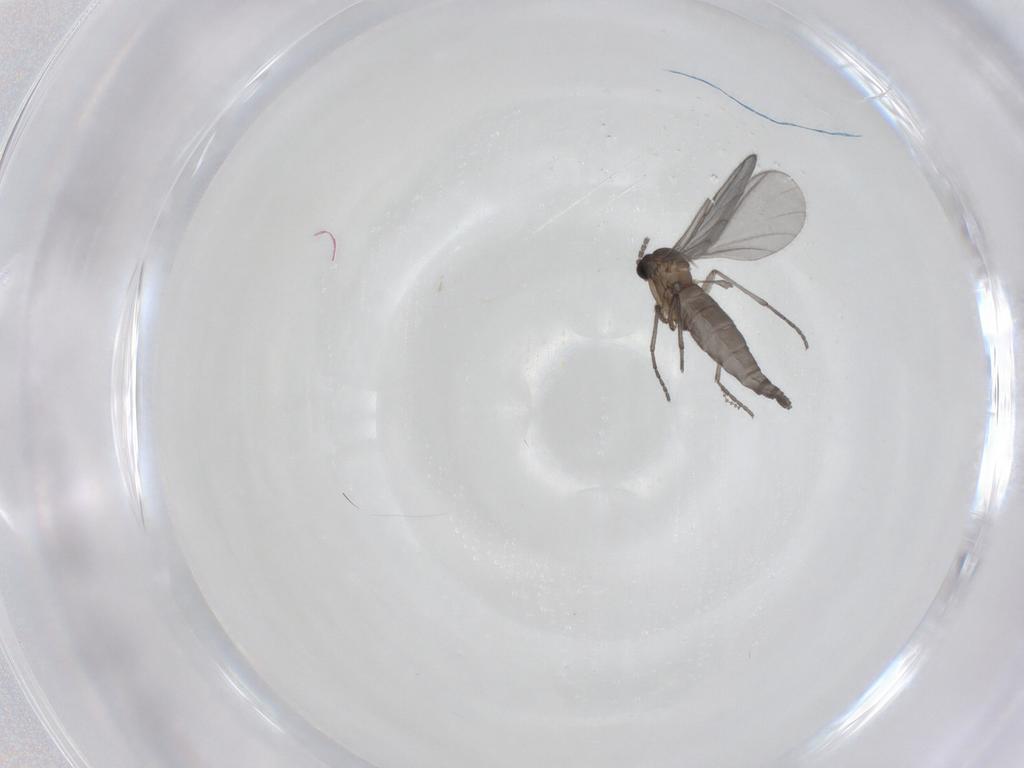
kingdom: Animalia
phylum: Arthropoda
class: Insecta
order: Diptera
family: Sciaridae
